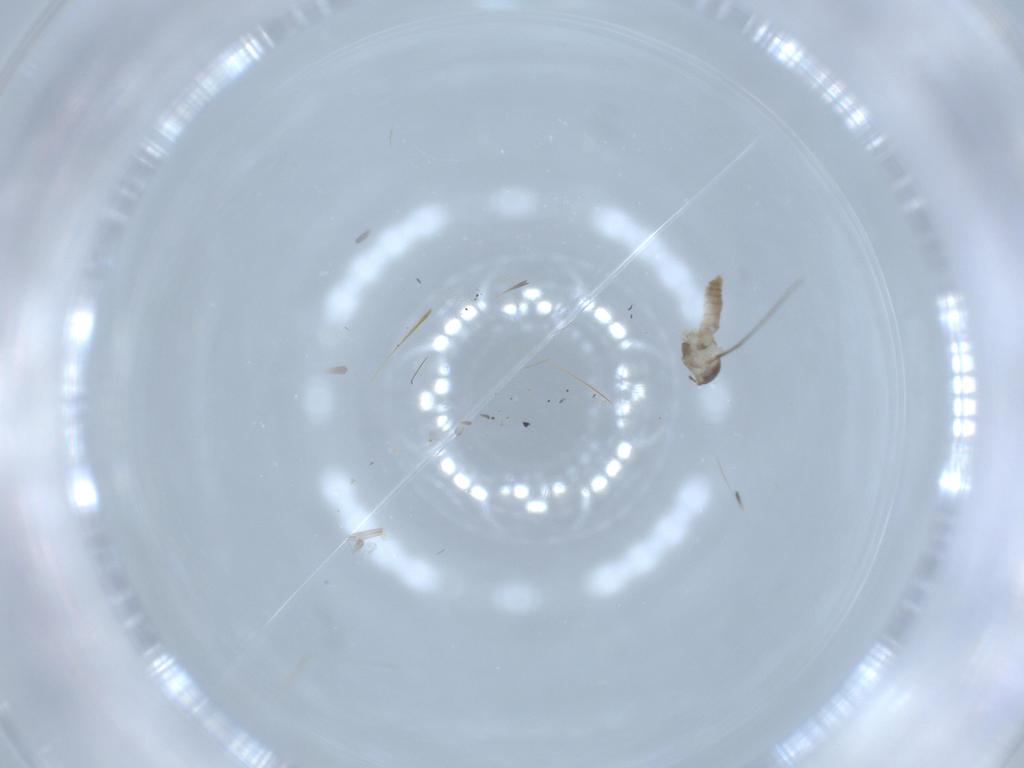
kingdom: Animalia
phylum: Arthropoda
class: Insecta
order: Diptera
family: Cecidomyiidae
